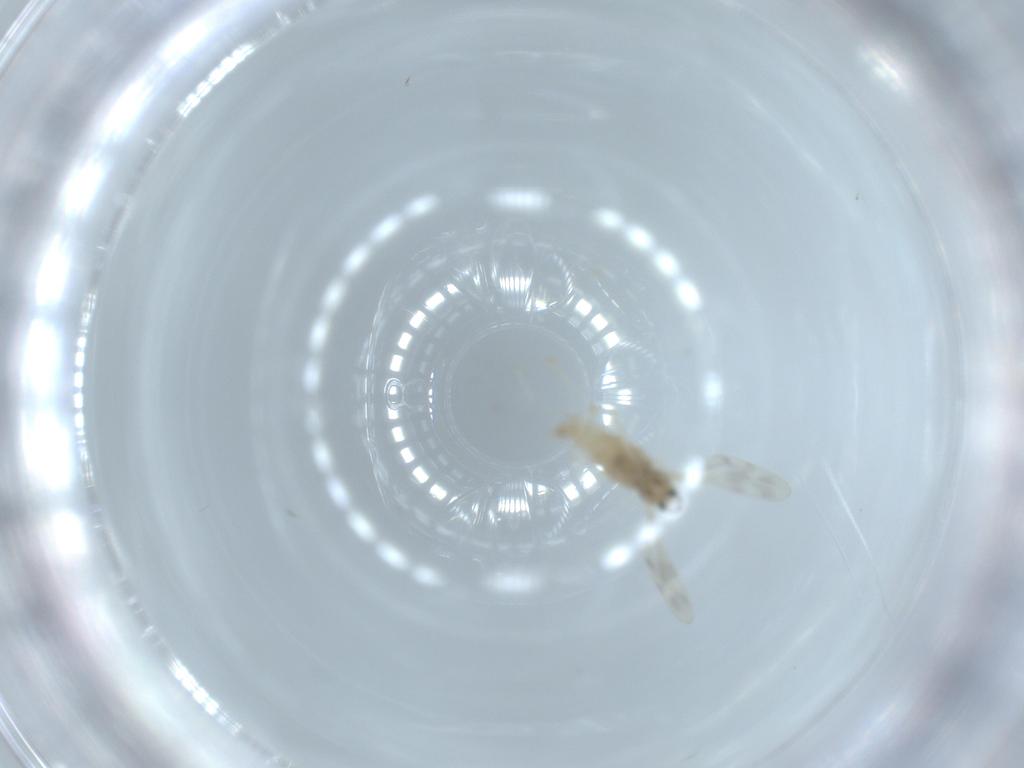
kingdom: Animalia
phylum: Arthropoda
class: Insecta
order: Diptera
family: Cecidomyiidae
